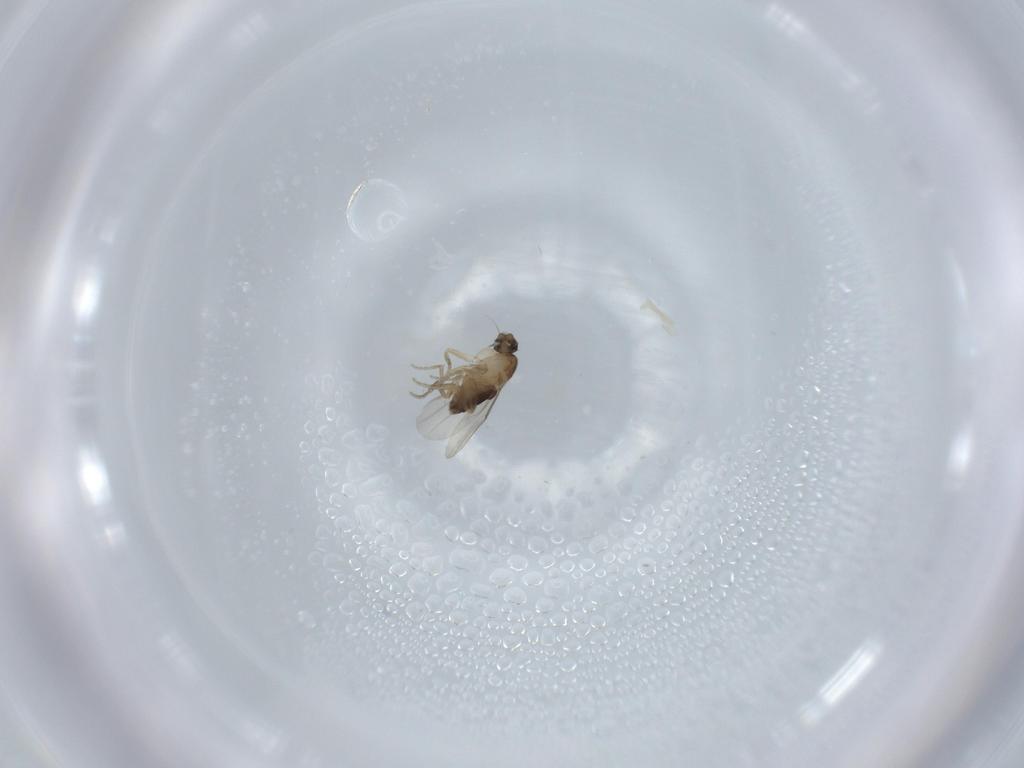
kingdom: Animalia
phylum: Arthropoda
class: Insecta
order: Diptera
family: Phoridae
